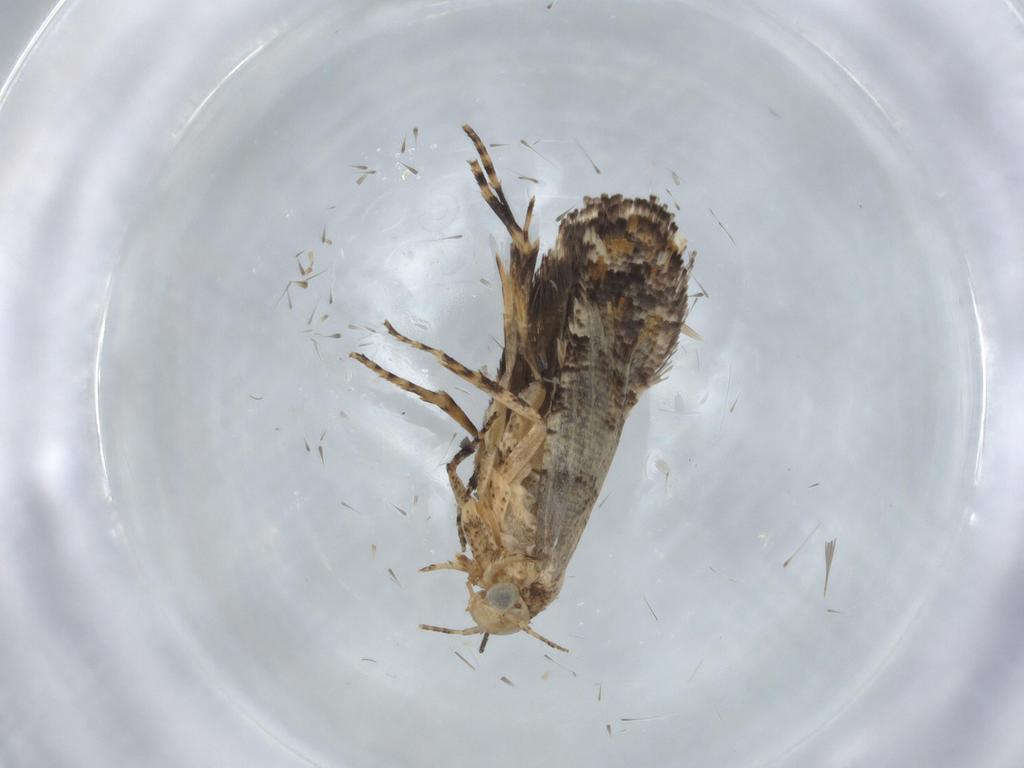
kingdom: Animalia
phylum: Arthropoda
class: Insecta
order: Lepidoptera
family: Glyphipterigidae
